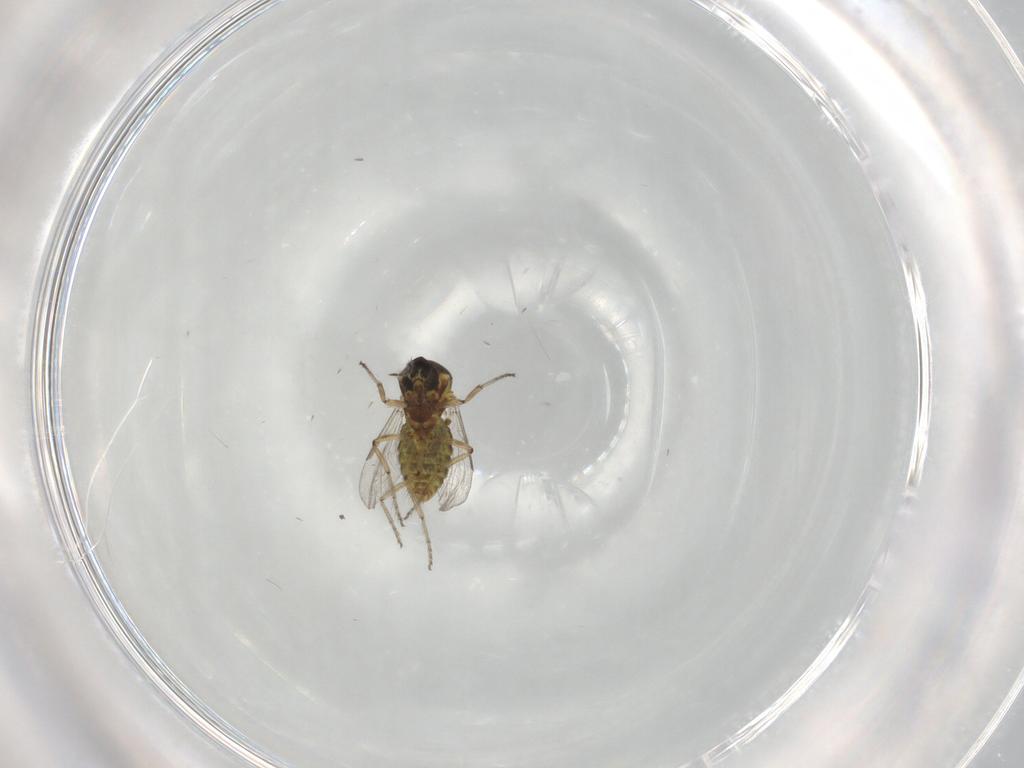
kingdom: Animalia
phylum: Arthropoda
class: Insecta
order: Diptera
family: Ceratopogonidae
